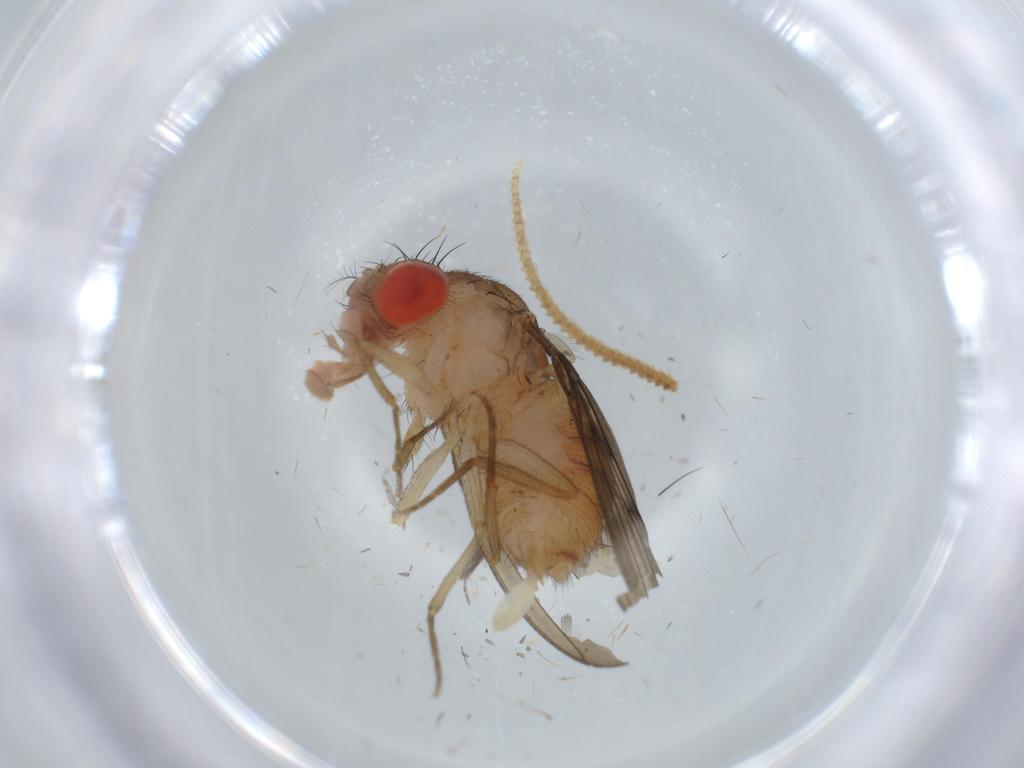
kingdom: Animalia
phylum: Arthropoda
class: Insecta
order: Diptera
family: Drosophilidae
